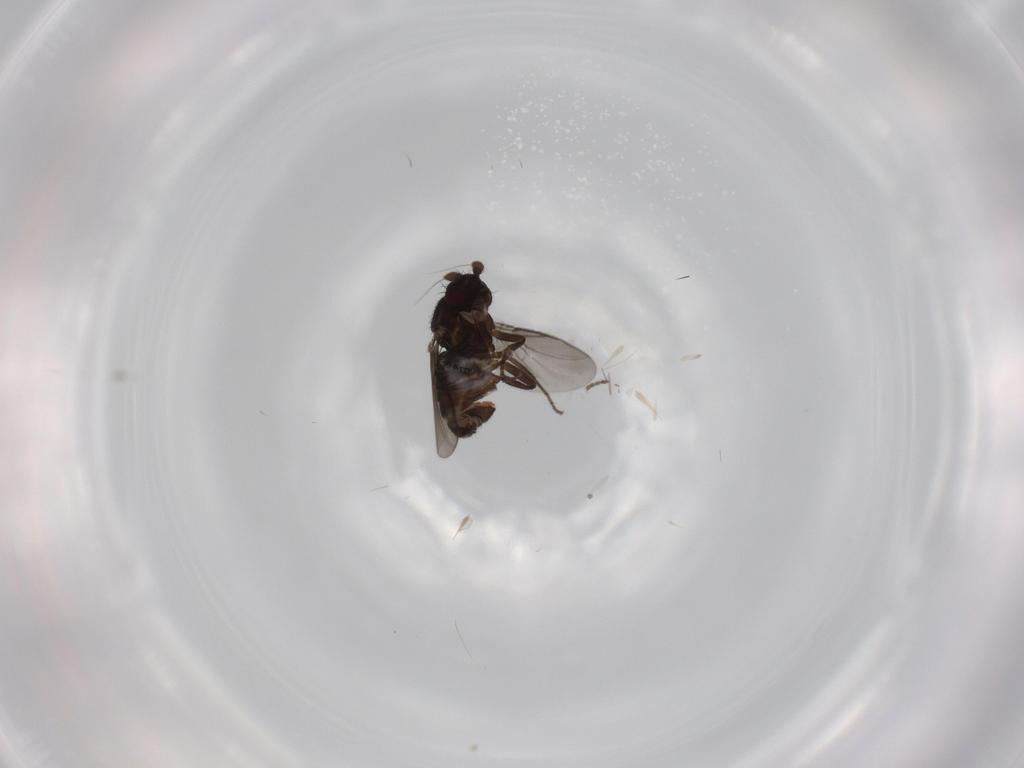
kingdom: Animalia
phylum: Arthropoda
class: Insecta
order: Diptera
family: Sphaeroceridae
